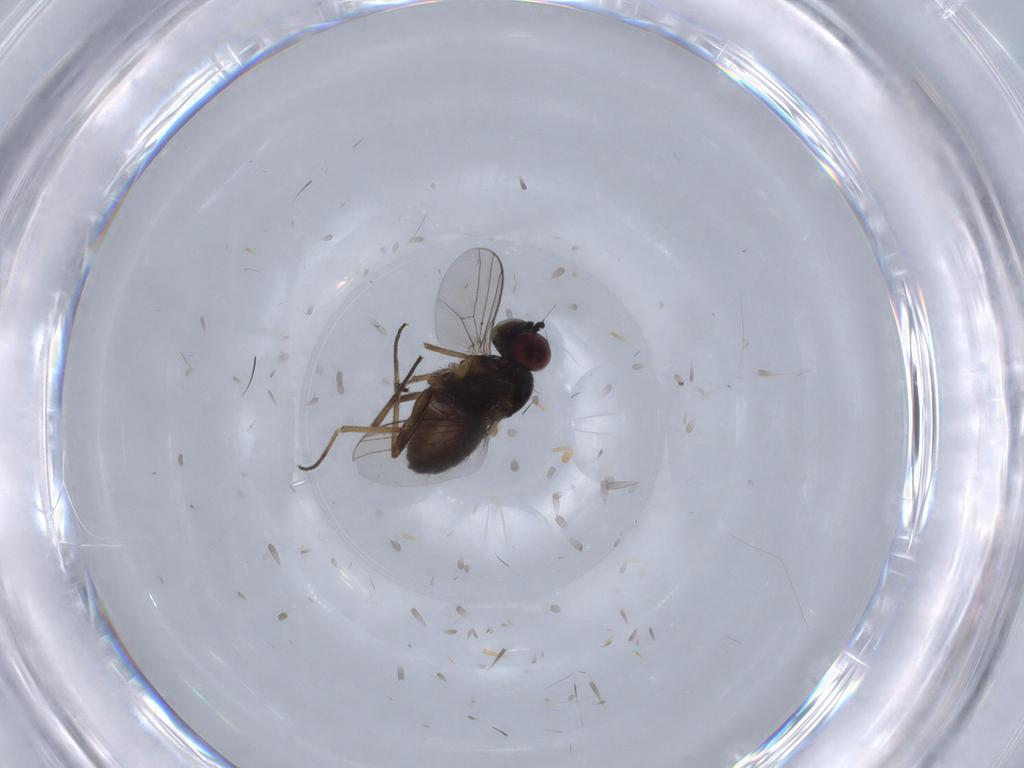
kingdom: Animalia
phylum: Arthropoda
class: Insecta
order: Diptera
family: Dolichopodidae
